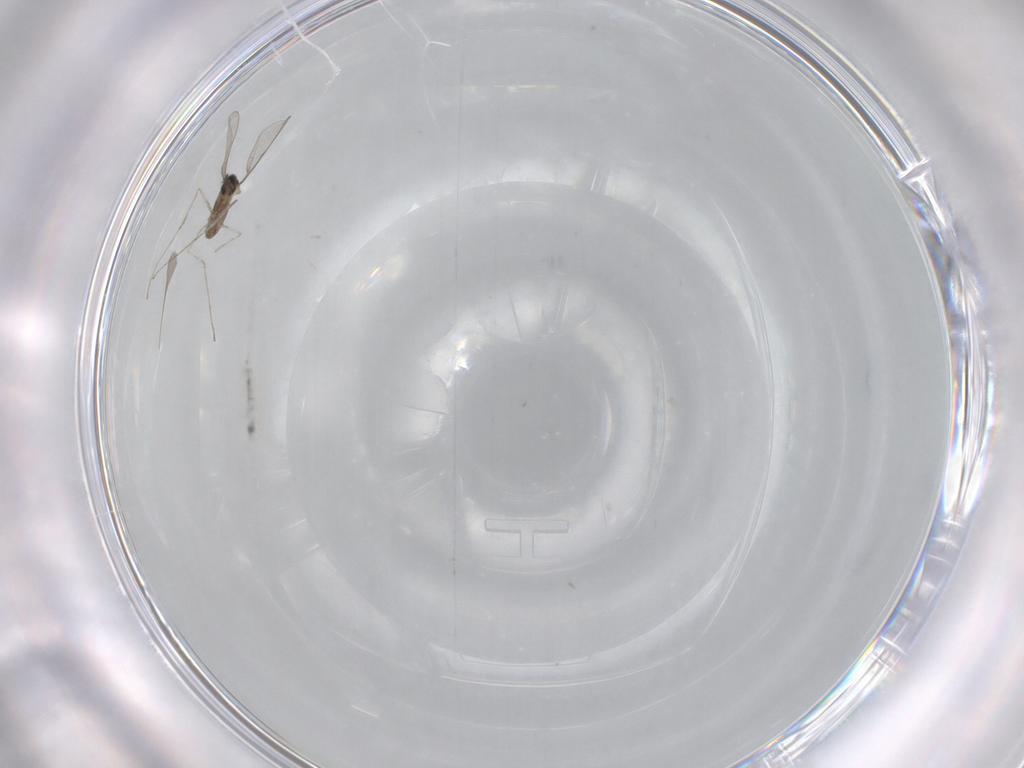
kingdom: Animalia
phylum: Arthropoda
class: Insecta
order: Diptera
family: Cecidomyiidae
